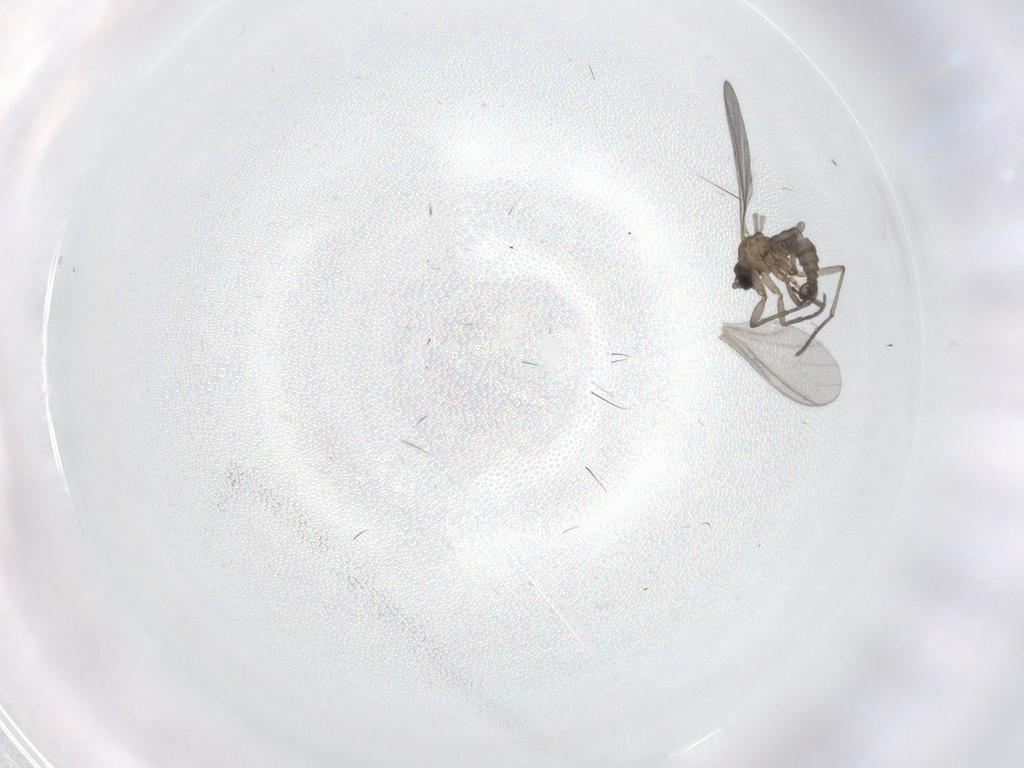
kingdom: Animalia
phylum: Arthropoda
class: Insecta
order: Diptera
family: Sciaridae
